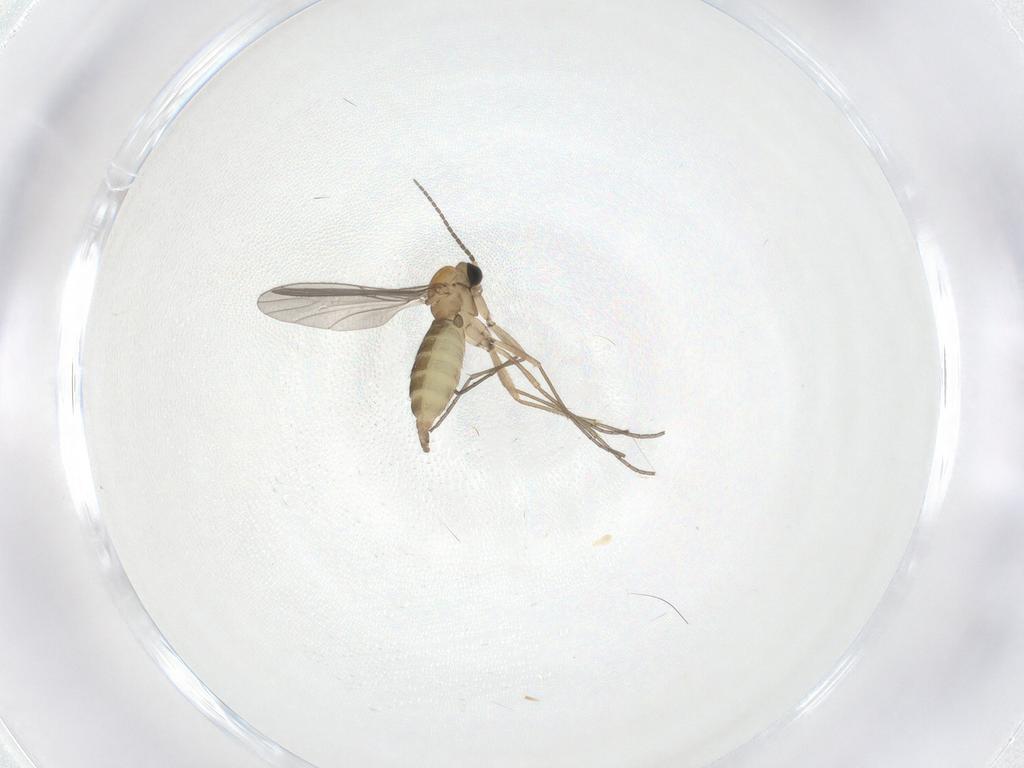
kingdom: Animalia
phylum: Arthropoda
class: Insecta
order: Diptera
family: Sciaridae
